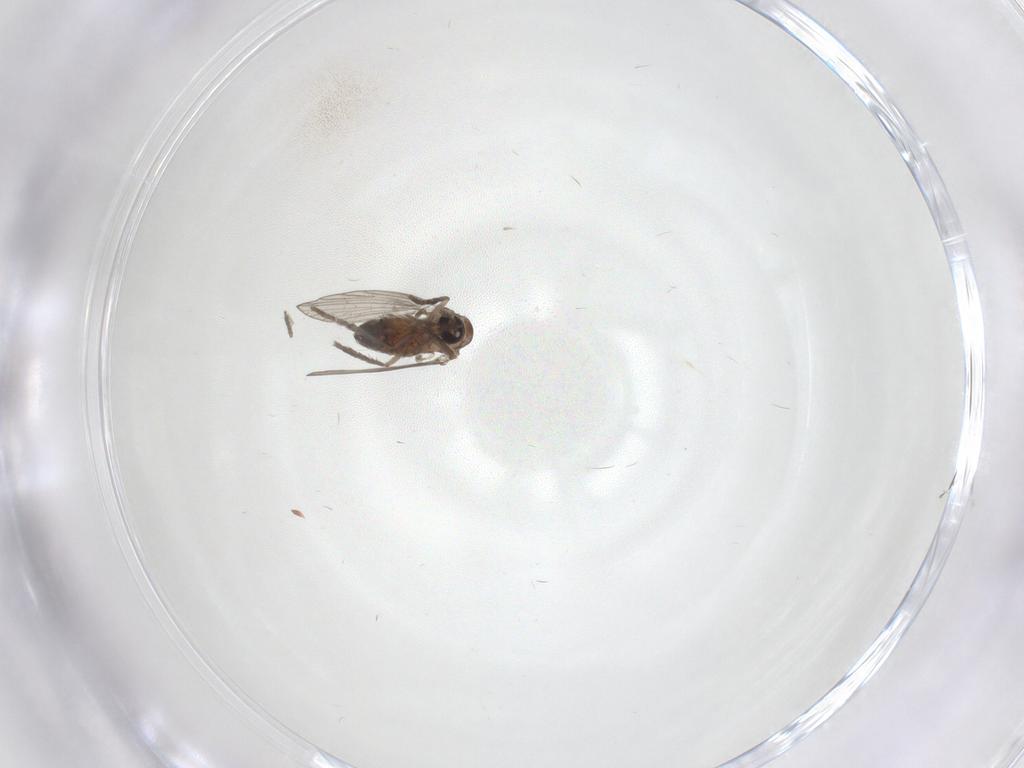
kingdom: Animalia
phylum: Arthropoda
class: Insecta
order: Diptera
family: Psychodidae
